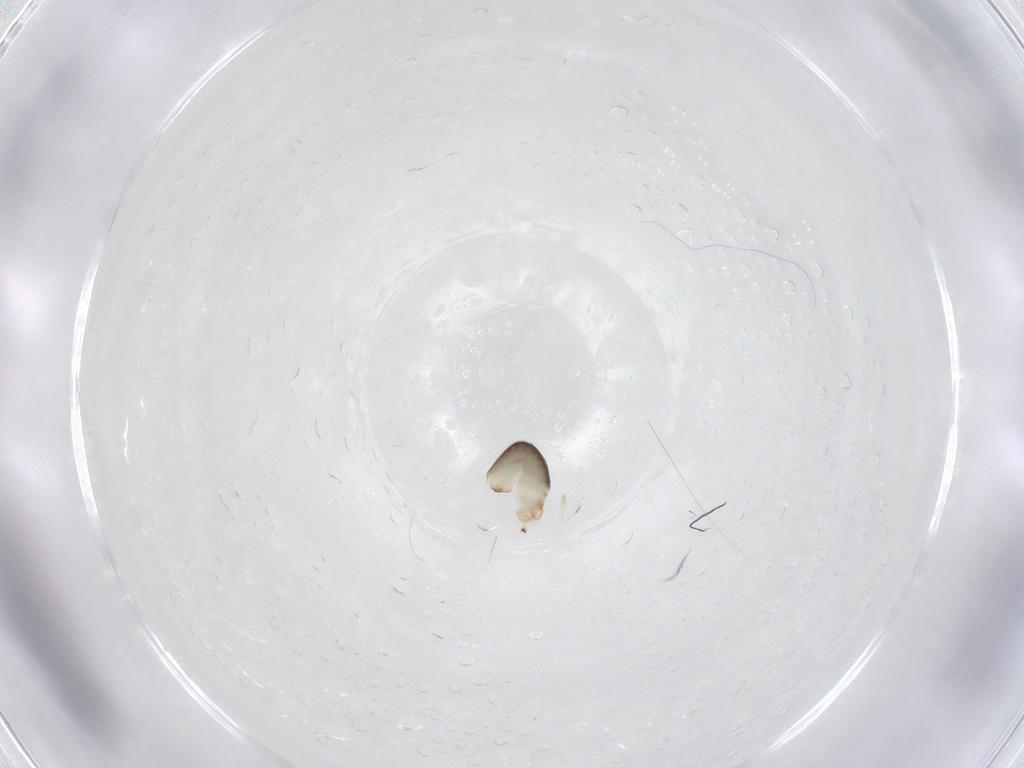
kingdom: Animalia
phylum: Arthropoda
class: Insecta
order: Hymenoptera
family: Dryinidae
